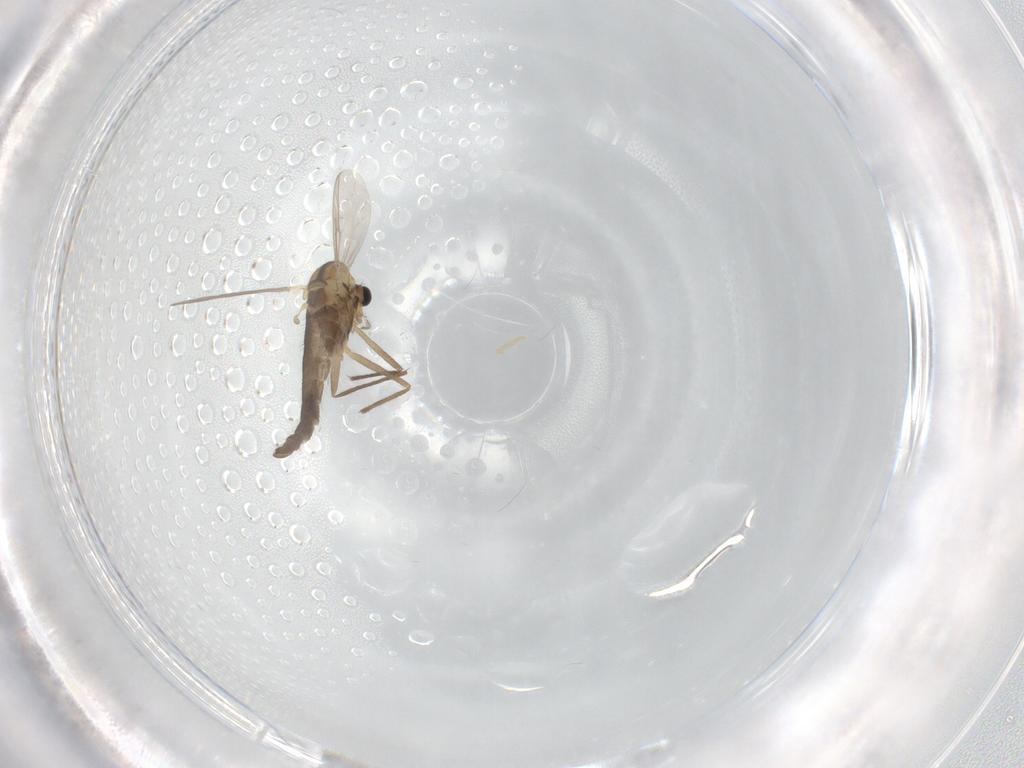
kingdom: Animalia
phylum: Arthropoda
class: Insecta
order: Diptera
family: Chironomidae
